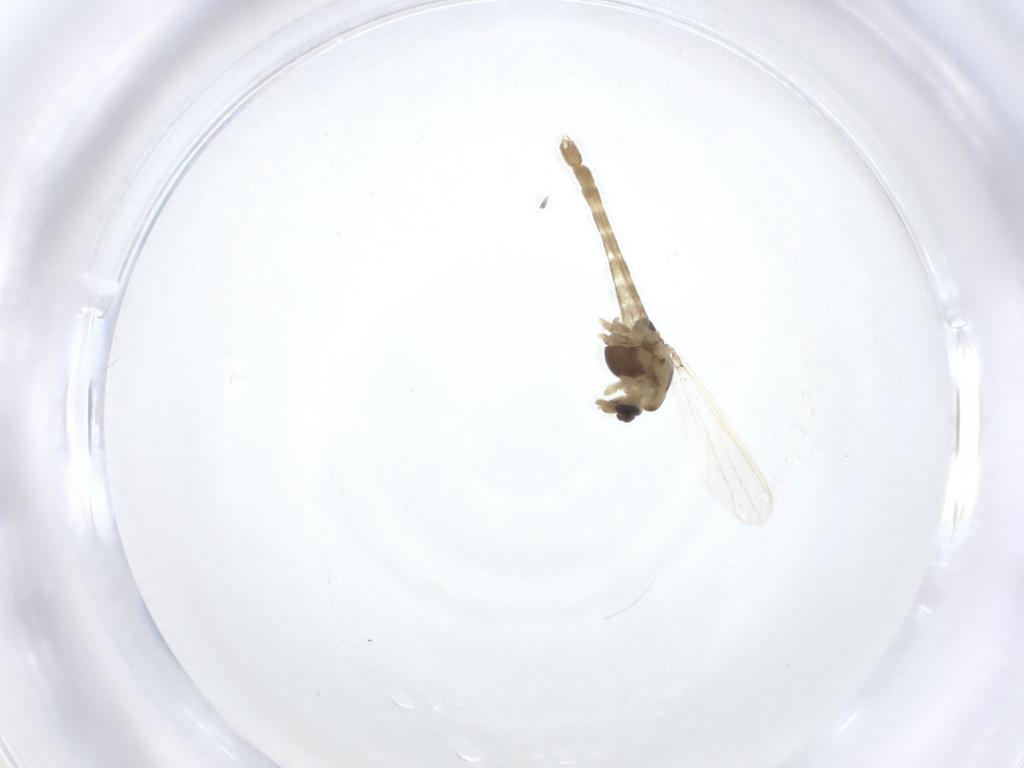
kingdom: Animalia
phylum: Arthropoda
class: Insecta
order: Diptera
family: Chironomidae
